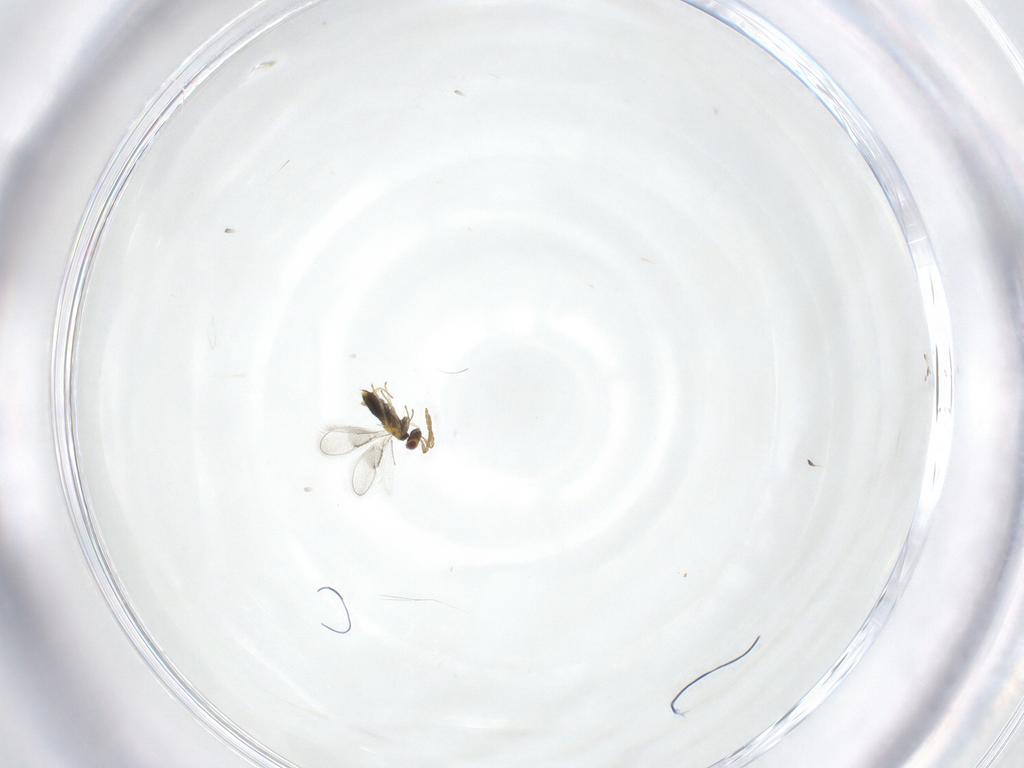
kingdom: Animalia
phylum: Arthropoda
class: Insecta
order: Hymenoptera
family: Aphelinidae
